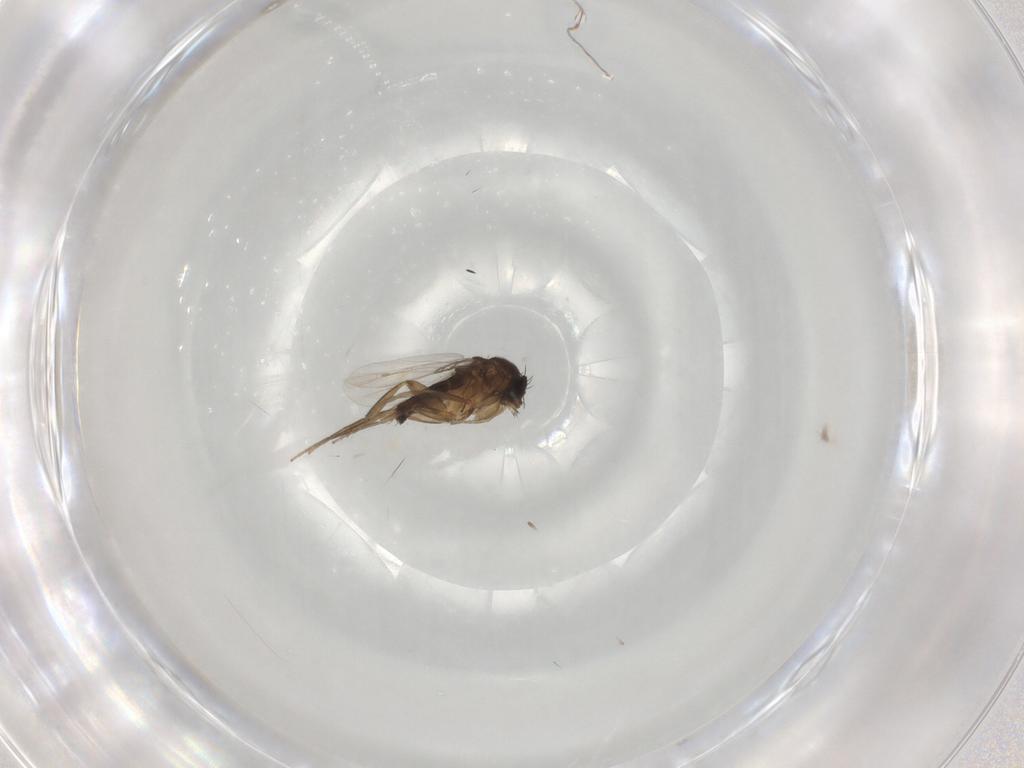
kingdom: Animalia
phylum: Arthropoda
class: Insecta
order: Diptera
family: Phoridae
